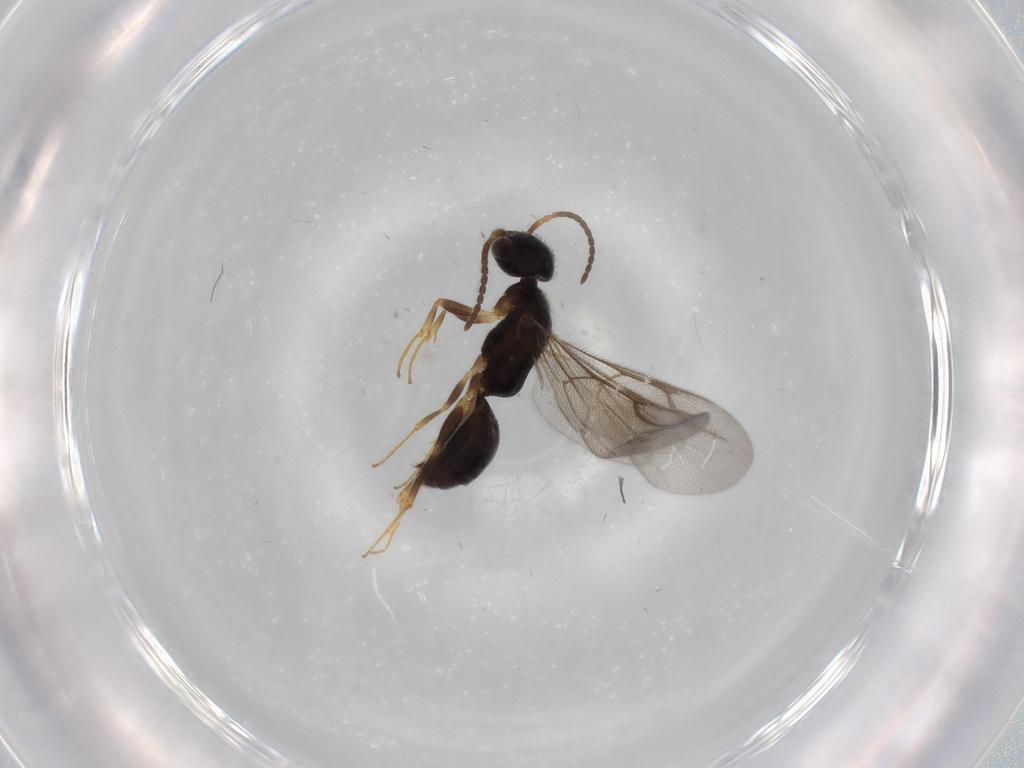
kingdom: Animalia
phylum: Arthropoda
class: Insecta
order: Hymenoptera
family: Bethylidae
